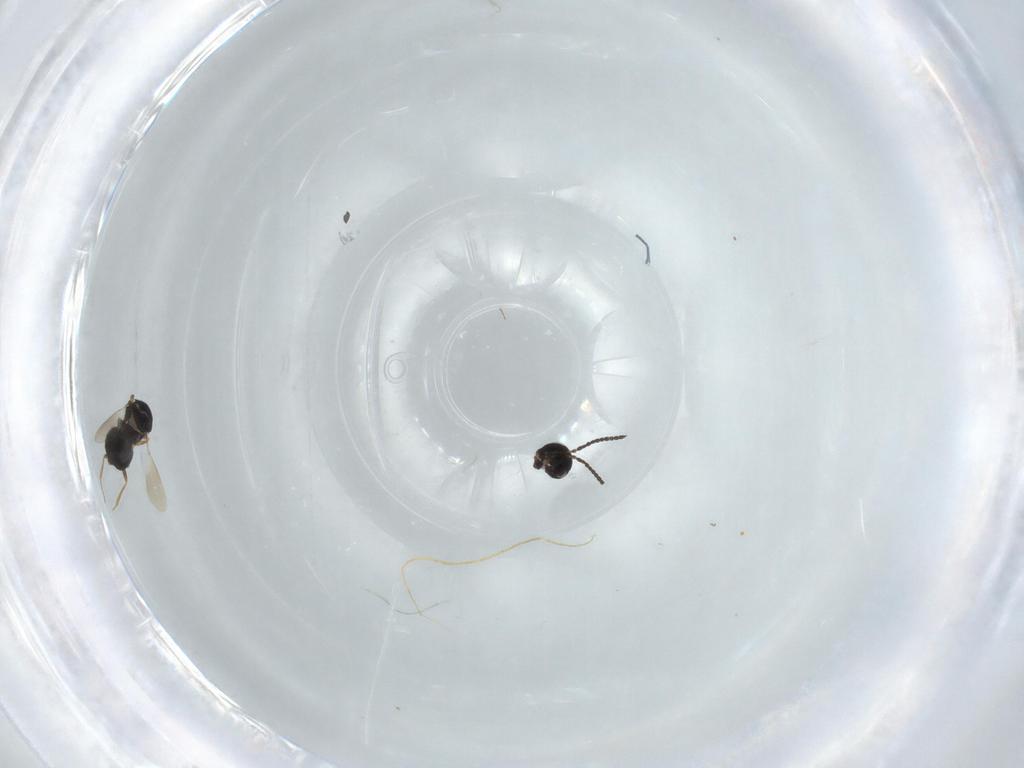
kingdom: Animalia
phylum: Arthropoda
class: Insecta
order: Hymenoptera
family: Scelionidae
